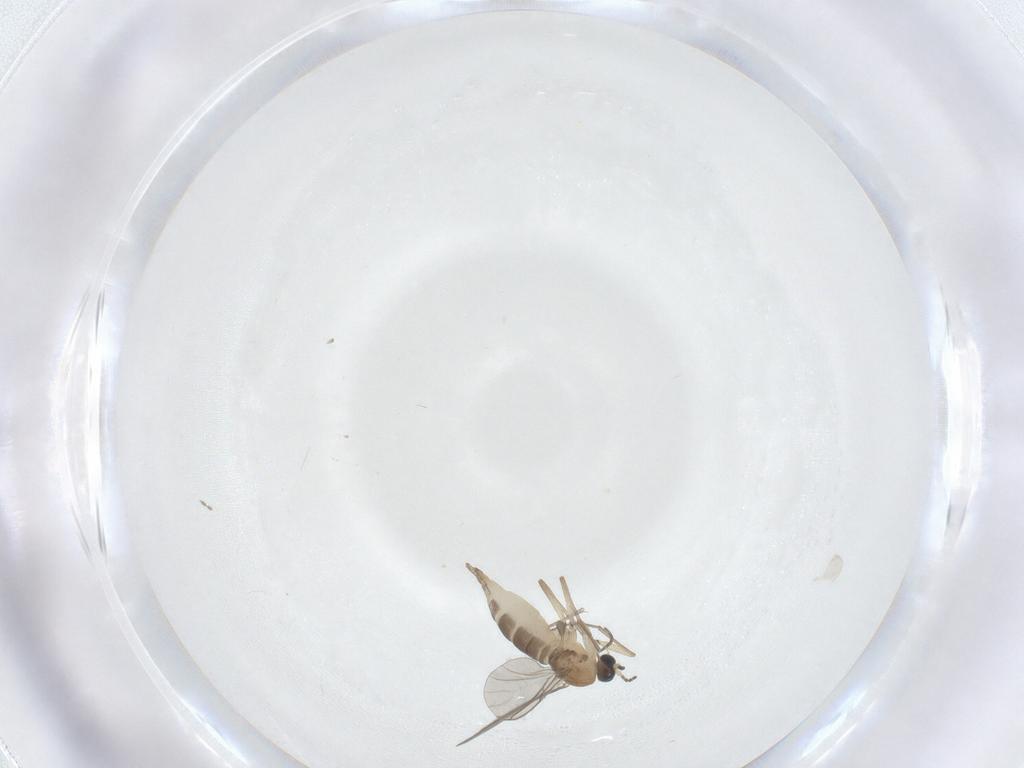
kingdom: Animalia
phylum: Arthropoda
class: Insecta
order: Diptera
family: Sciaridae
